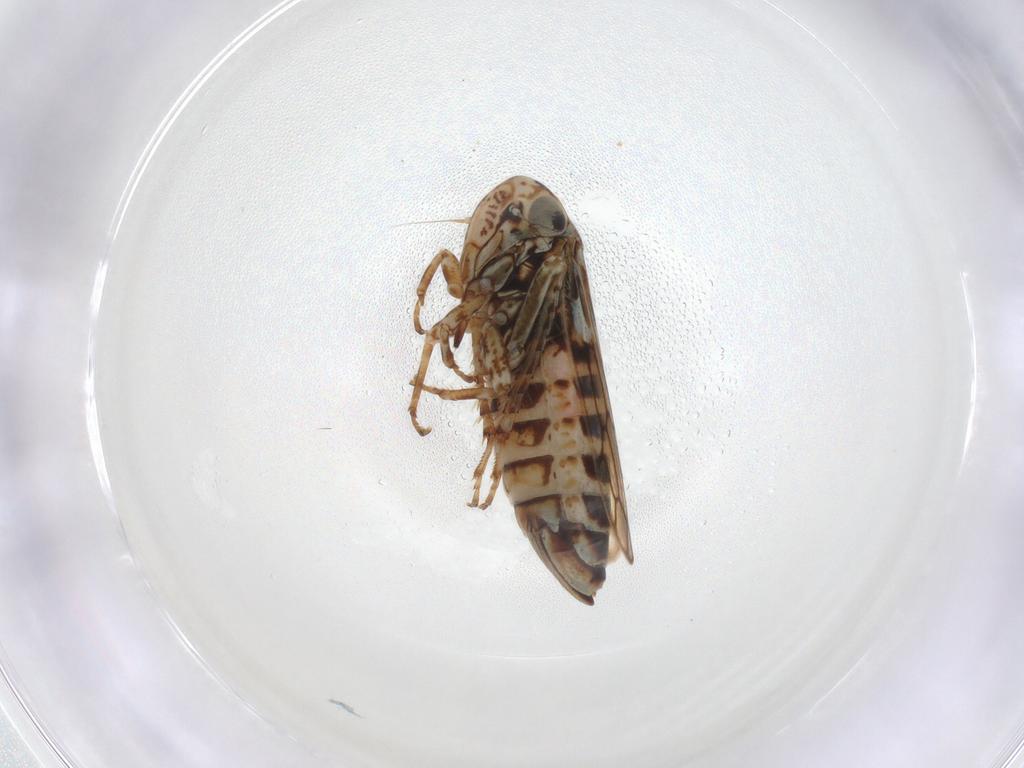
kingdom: Animalia
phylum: Arthropoda
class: Insecta
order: Hemiptera
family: Cicadellidae
